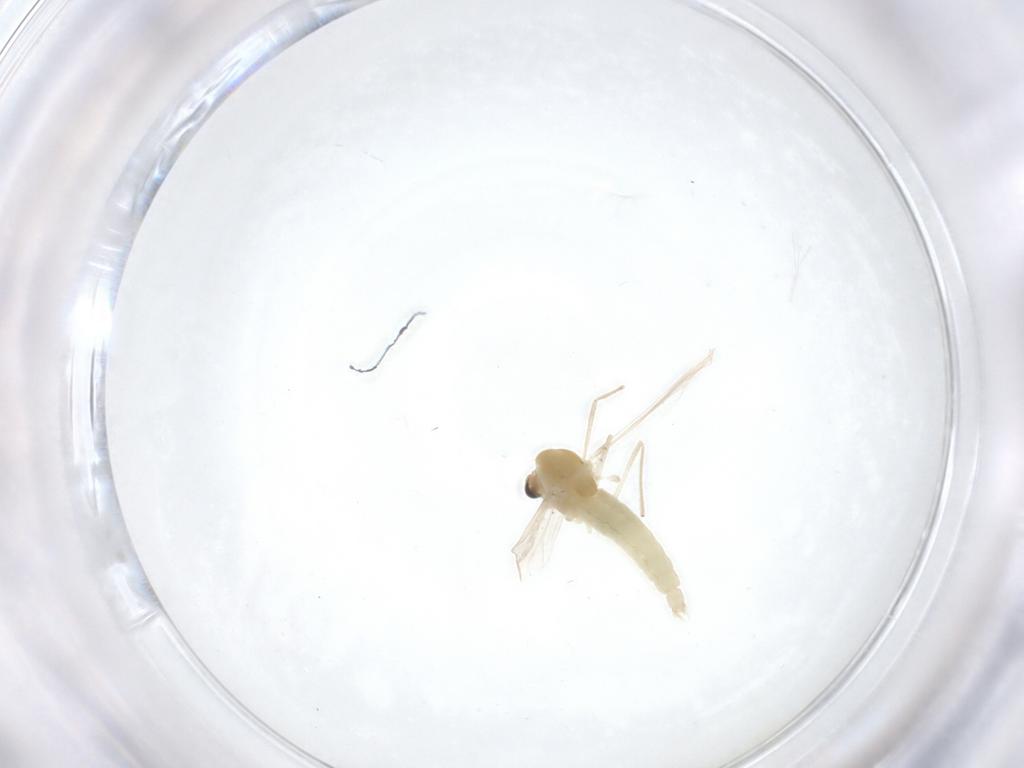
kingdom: Animalia
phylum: Arthropoda
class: Insecta
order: Diptera
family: Chironomidae
